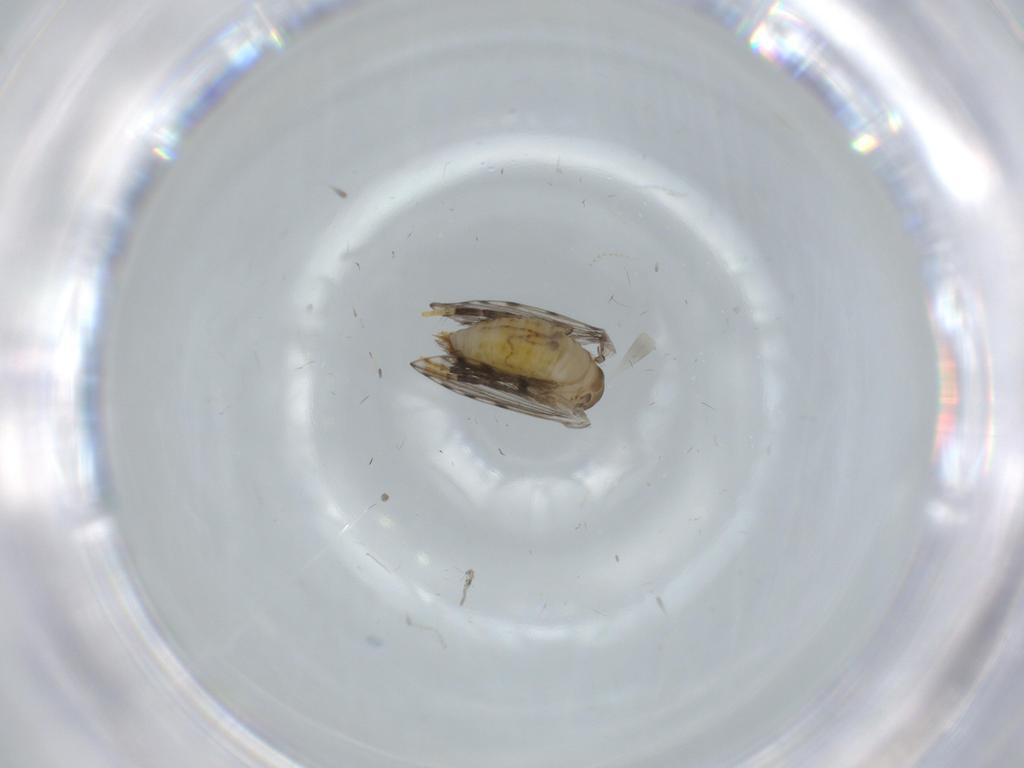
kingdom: Animalia
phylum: Arthropoda
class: Insecta
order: Diptera
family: Psychodidae
